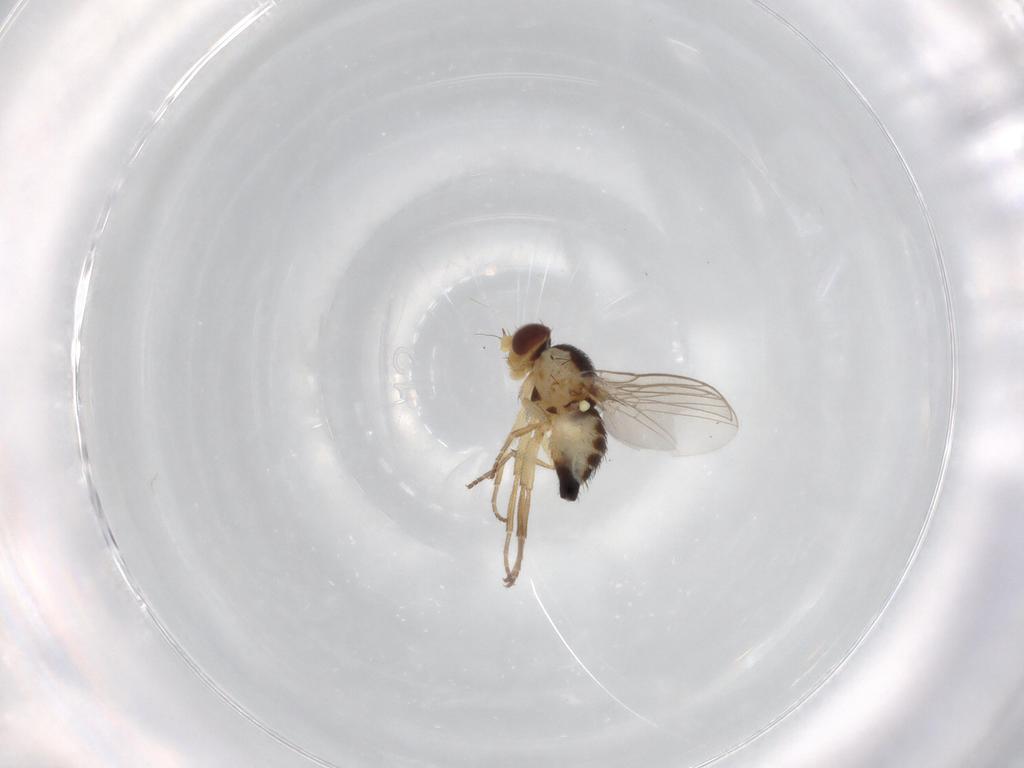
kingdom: Animalia
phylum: Arthropoda
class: Insecta
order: Diptera
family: Agromyzidae
